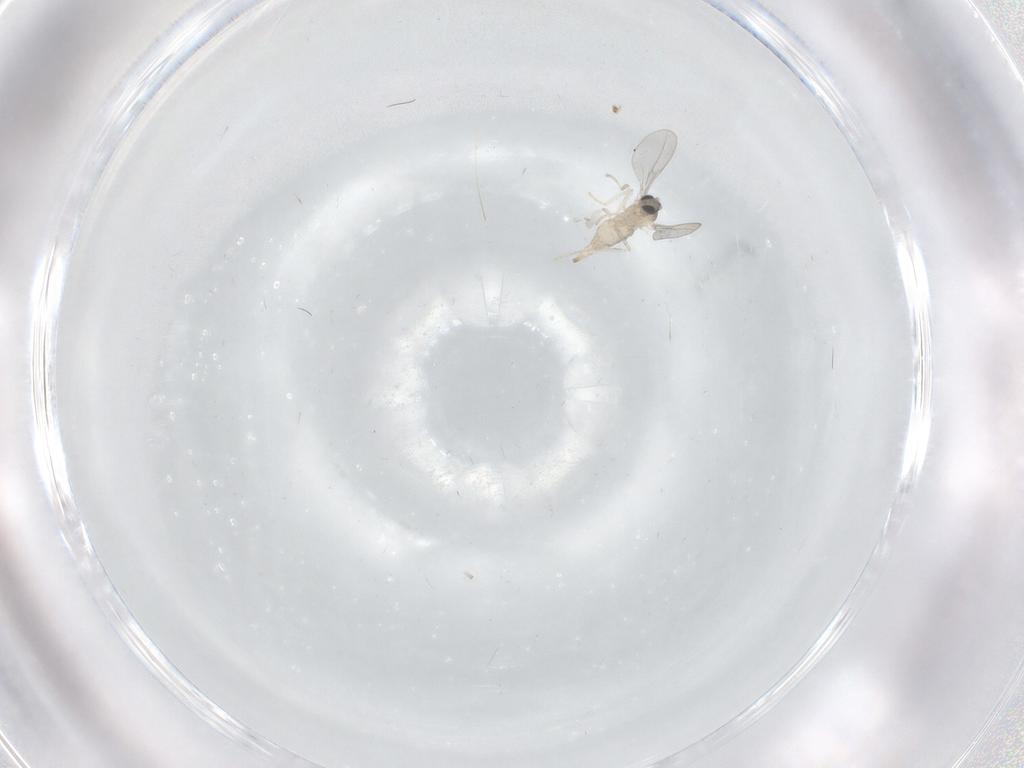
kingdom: Animalia
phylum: Arthropoda
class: Insecta
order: Diptera
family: Cecidomyiidae
